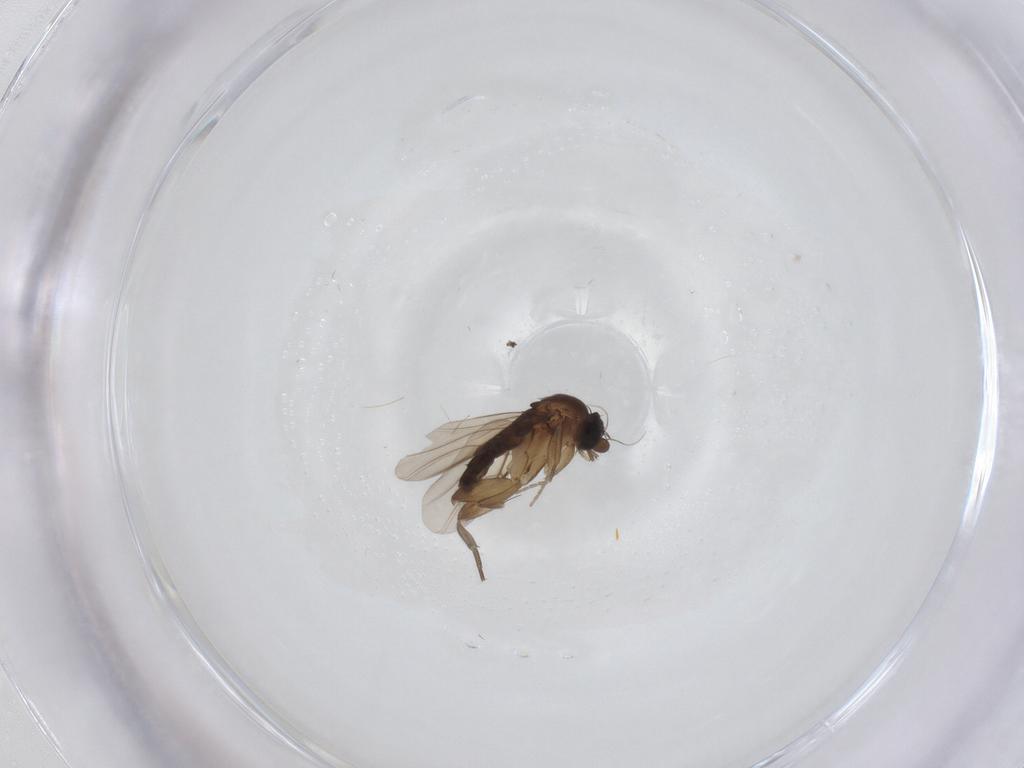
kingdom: Animalia
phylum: Arthropoda
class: Insecta
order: Diptera
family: Phoridae
